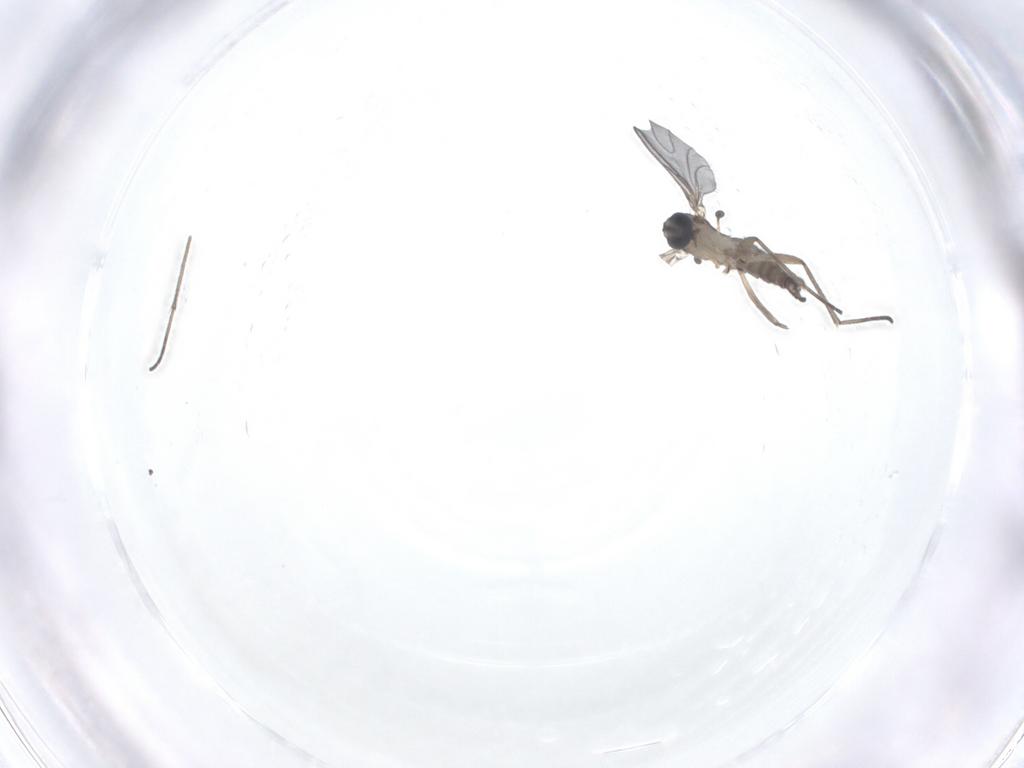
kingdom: Animalia
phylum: Arthropoda
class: Insecta
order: Diptera
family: Sciaridae
